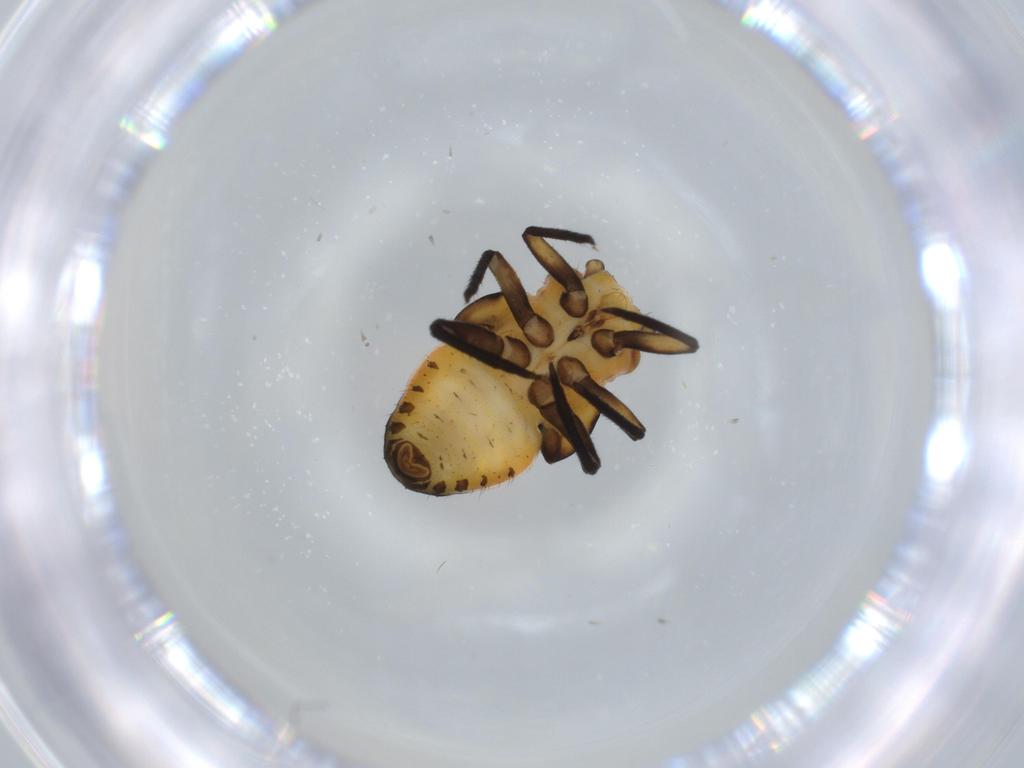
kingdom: Animalia
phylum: Arthropoda
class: Insecta
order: Hemiptera
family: Psyllidae
